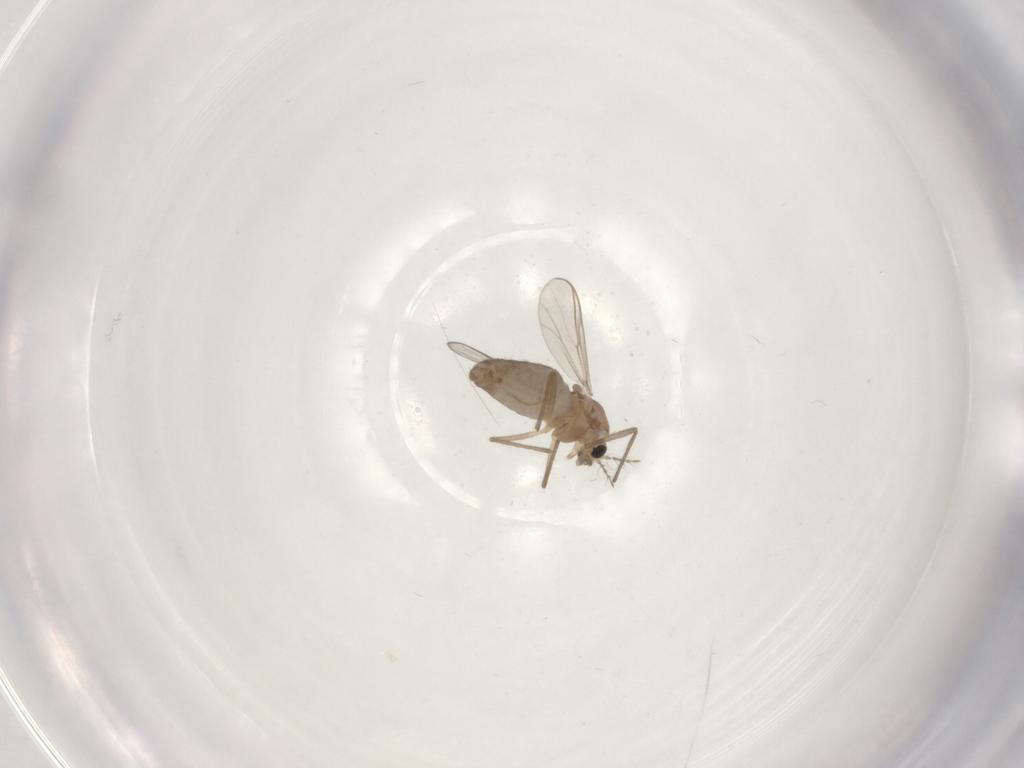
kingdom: Animalia
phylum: Arthropoda
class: Insecta
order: Diptera
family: Chironomidae
